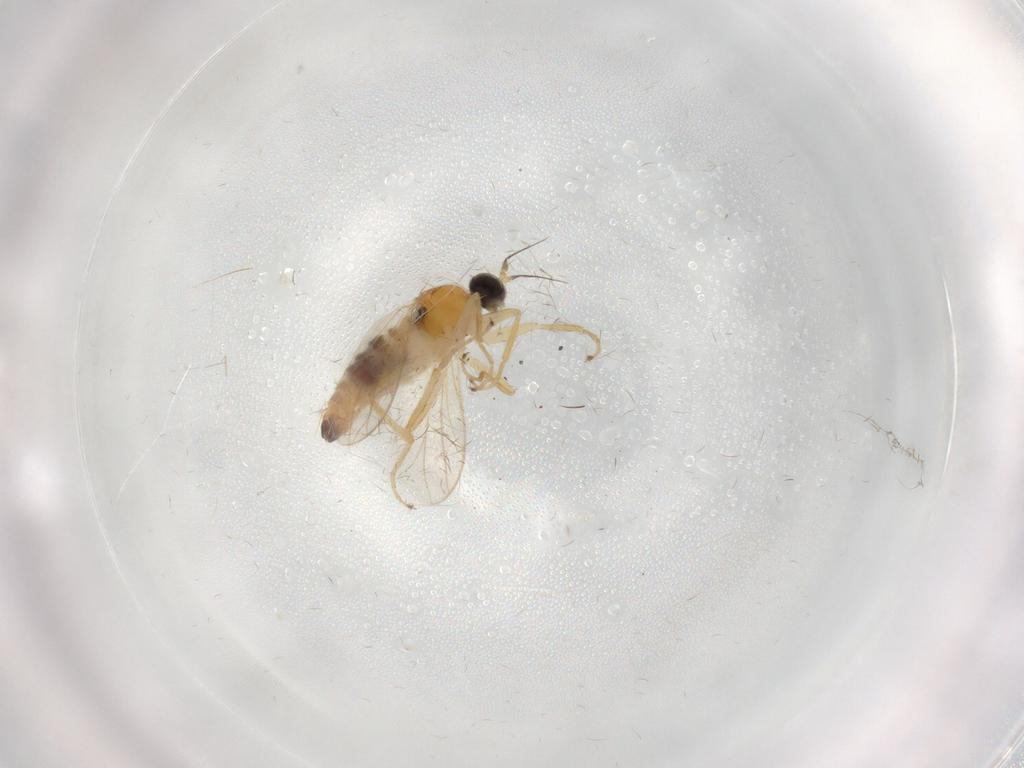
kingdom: Animalia
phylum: Arthropoda
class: Insecta
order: Diptera
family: Hybotidae
